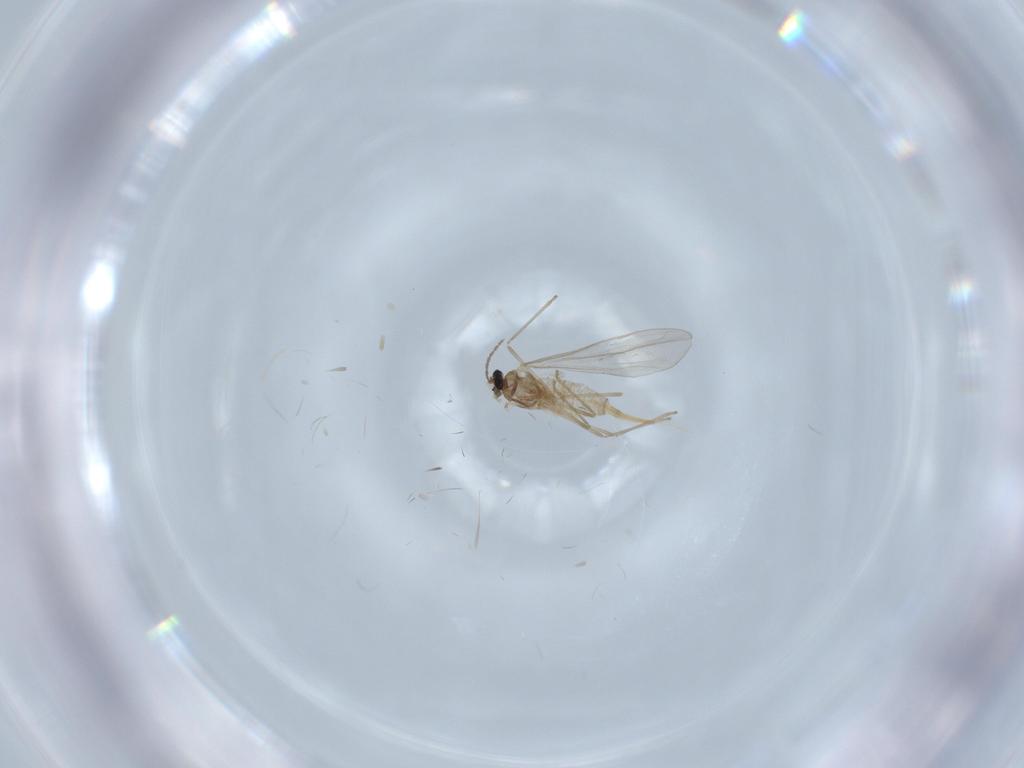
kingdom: Animalia
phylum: Arthropoda
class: Insecta
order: Diptera
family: Cecidomyiidae
